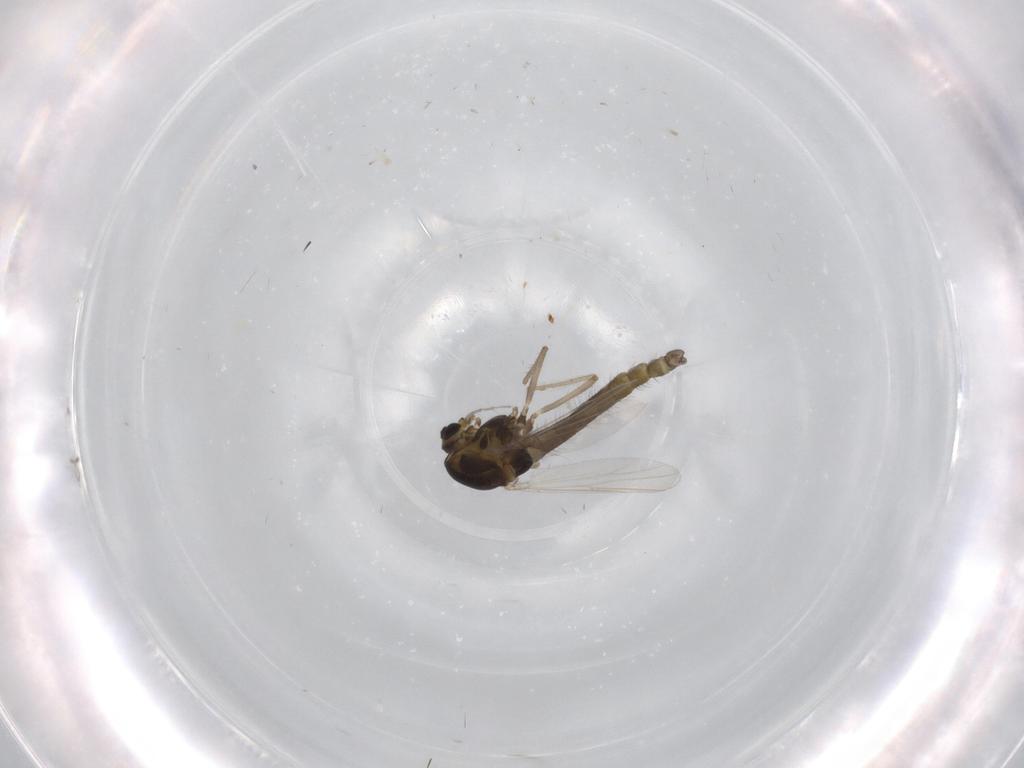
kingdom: Animalia
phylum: Arthropoda
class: Insecta
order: Diptera
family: Chironomidae
